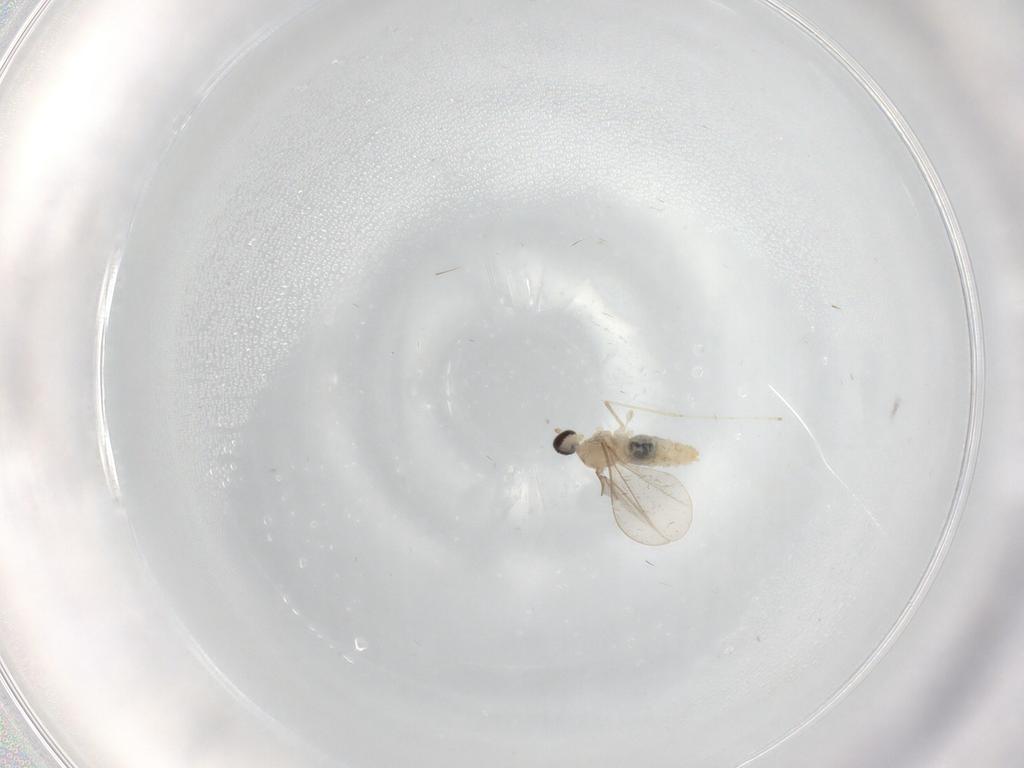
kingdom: Animalia
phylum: Arthropoda
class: Insecta
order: Diptera
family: Cecidomyiidae
